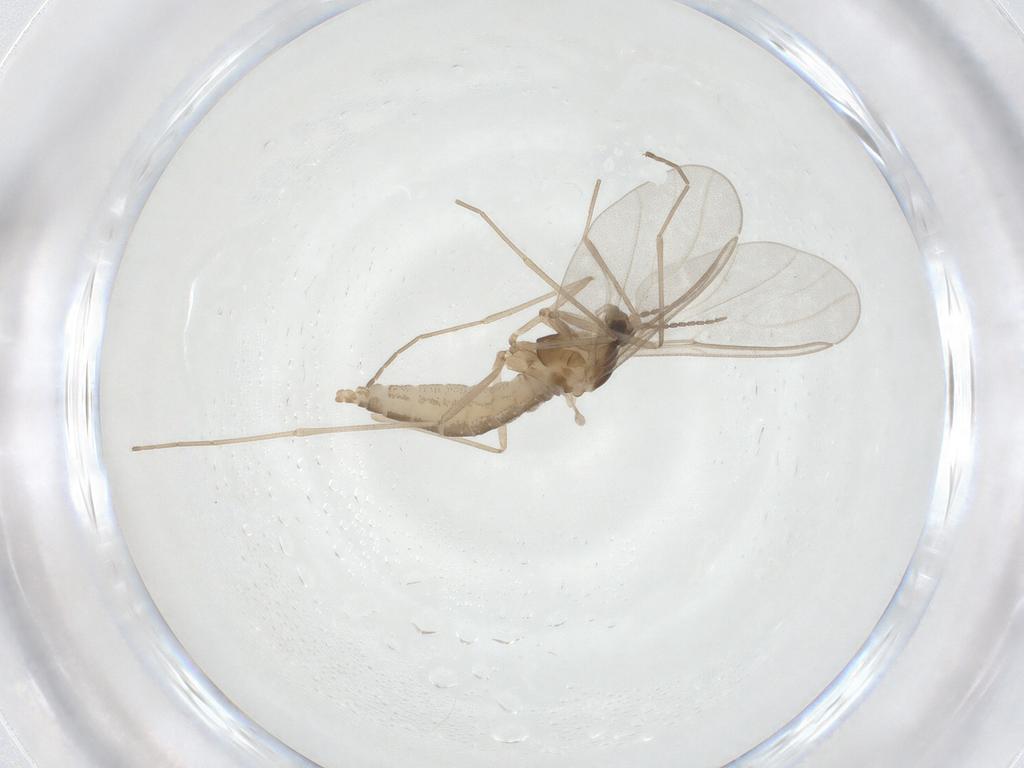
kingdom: Animalia
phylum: Arthropoda
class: Insecta
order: Diptera
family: Cecidomyiidae
